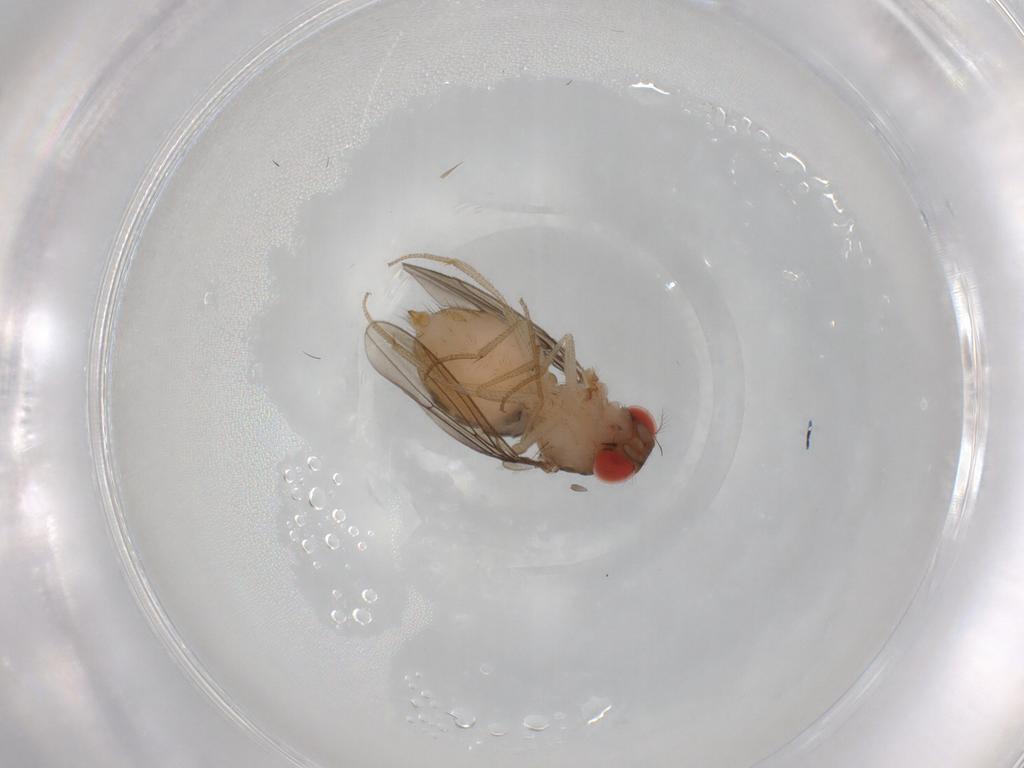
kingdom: Animalia
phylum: Arthropoda
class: Insecta
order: Diptera
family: Drosophilidae
